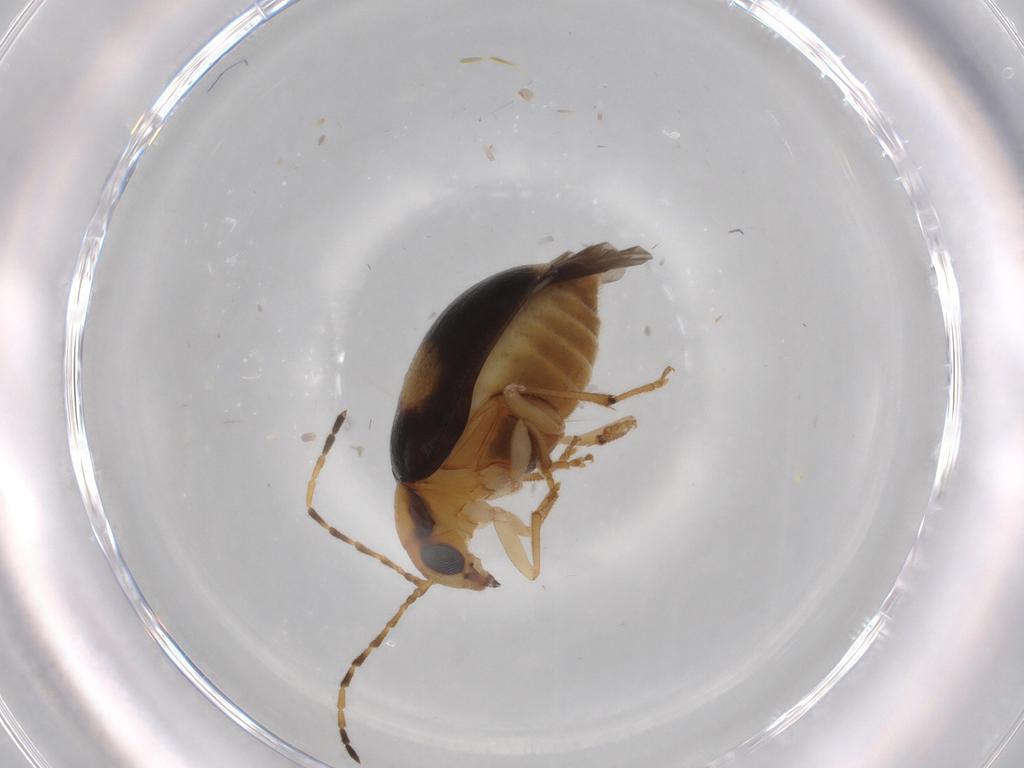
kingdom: Animalia
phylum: Arthropoda
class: Insecta
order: Coleoptera
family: Chrysomelidae
